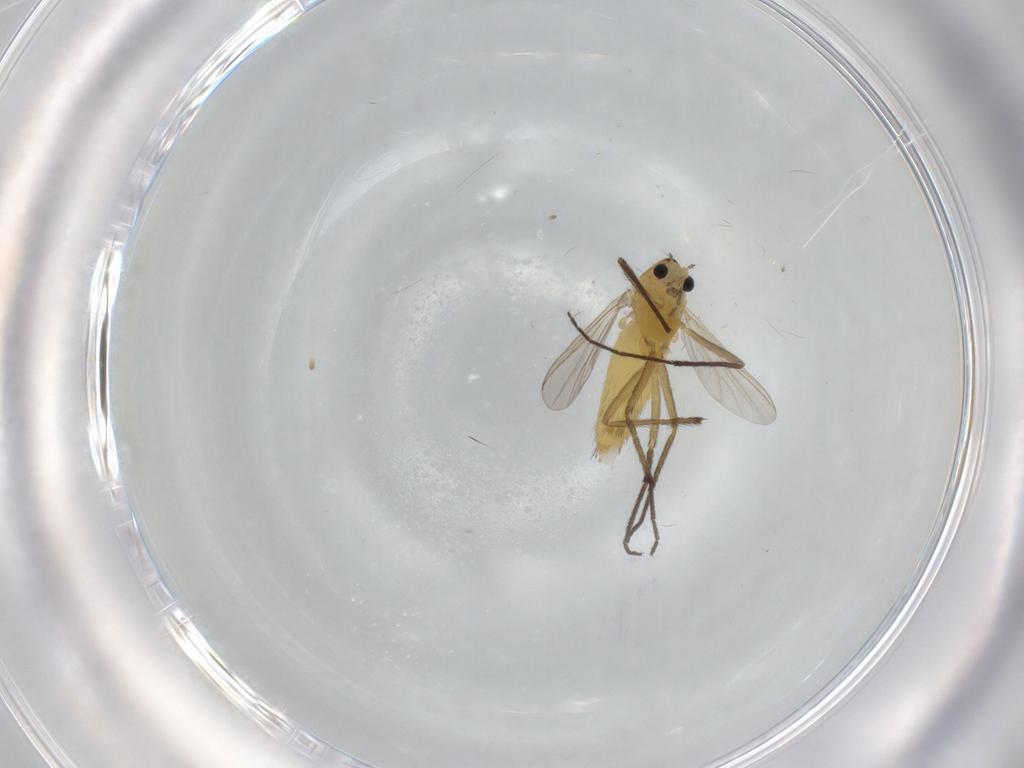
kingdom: Animalia
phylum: Arthropoda
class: Insecta
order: Diptera
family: Chironomidae
